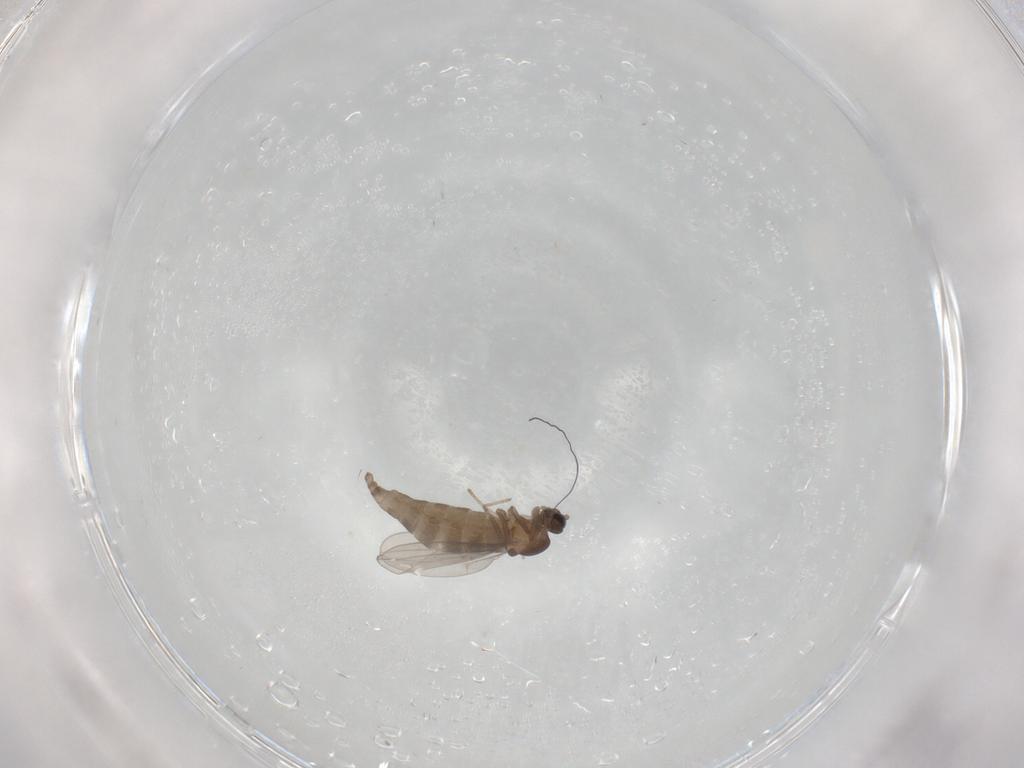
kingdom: Animalia
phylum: Arthropoda
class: Insecta
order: Diptera
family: Cecidomyiidae
